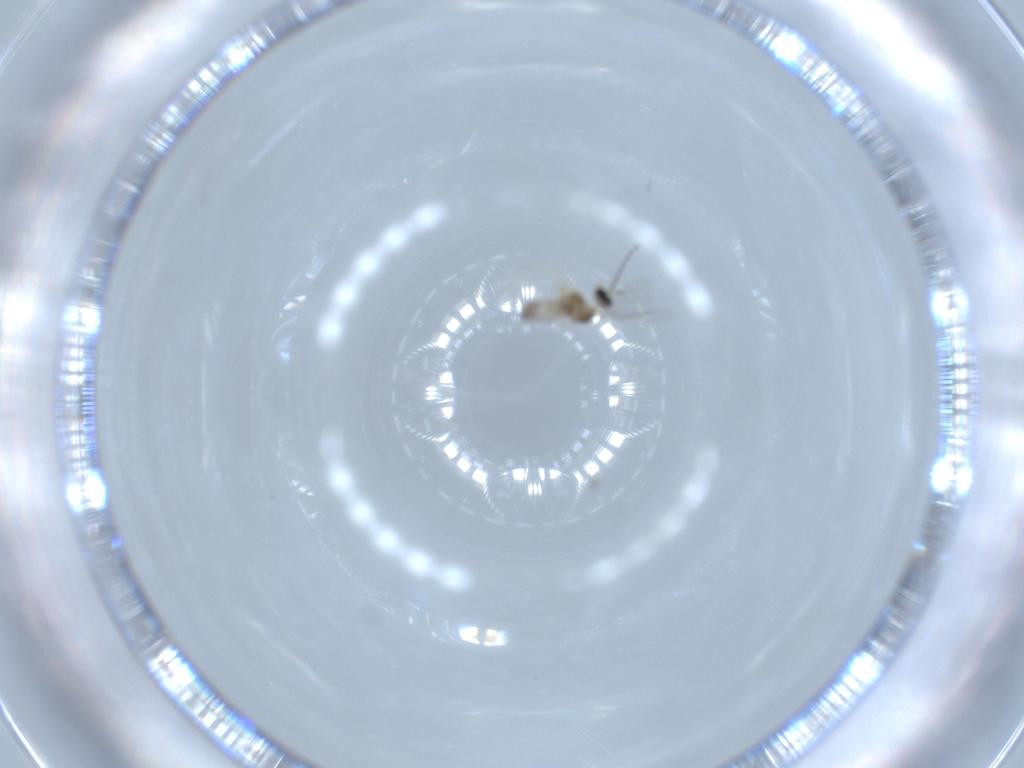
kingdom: Animalia
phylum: Arthropoda
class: Insecta
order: Diptera
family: Cecidomyiidae
